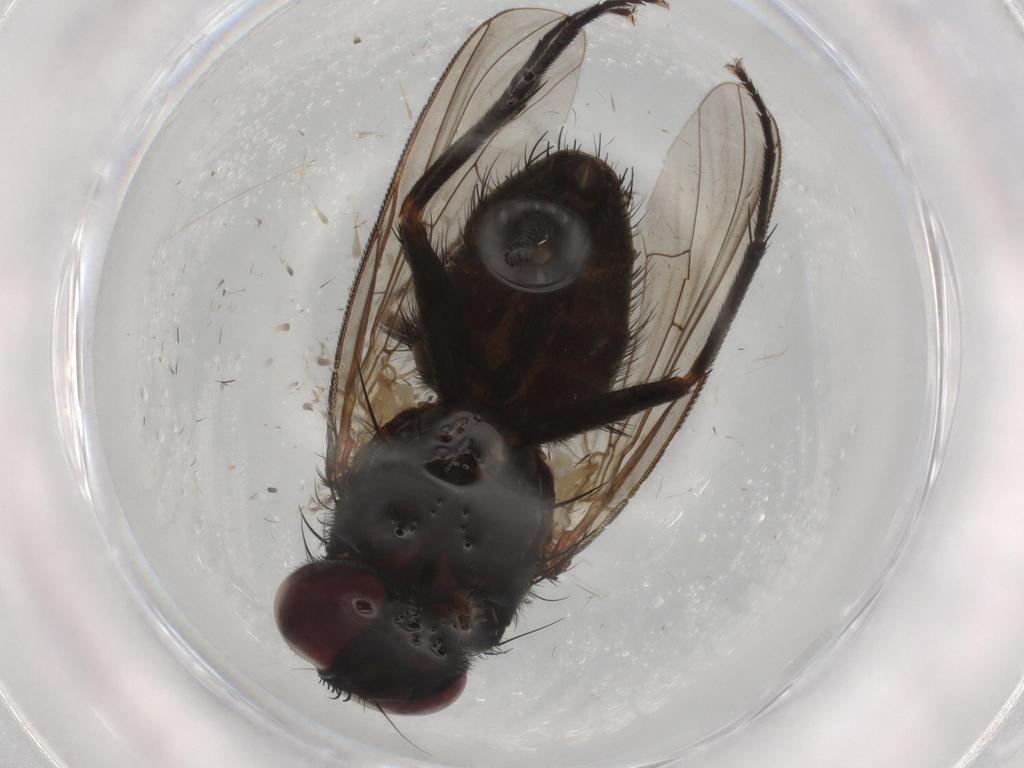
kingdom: Animalia
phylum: Arthropoda
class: Insecta
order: Diptera
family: Muscidae
